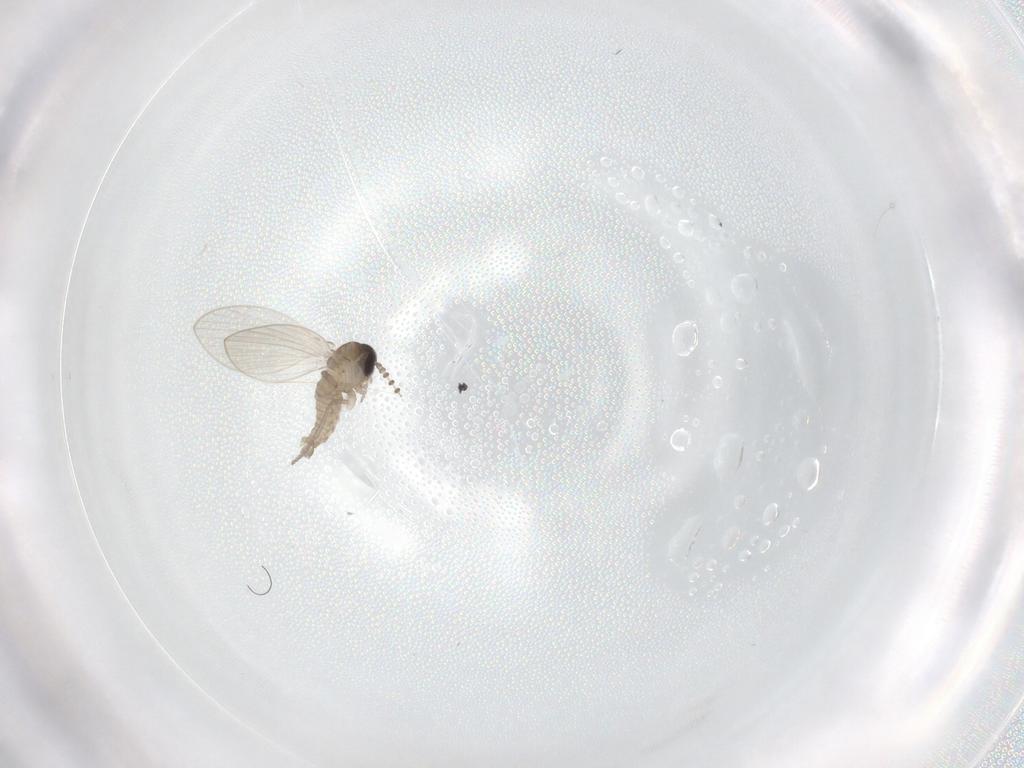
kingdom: Animalia
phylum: Arthropoda
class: Insecta
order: Diptera
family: Psychodidae
